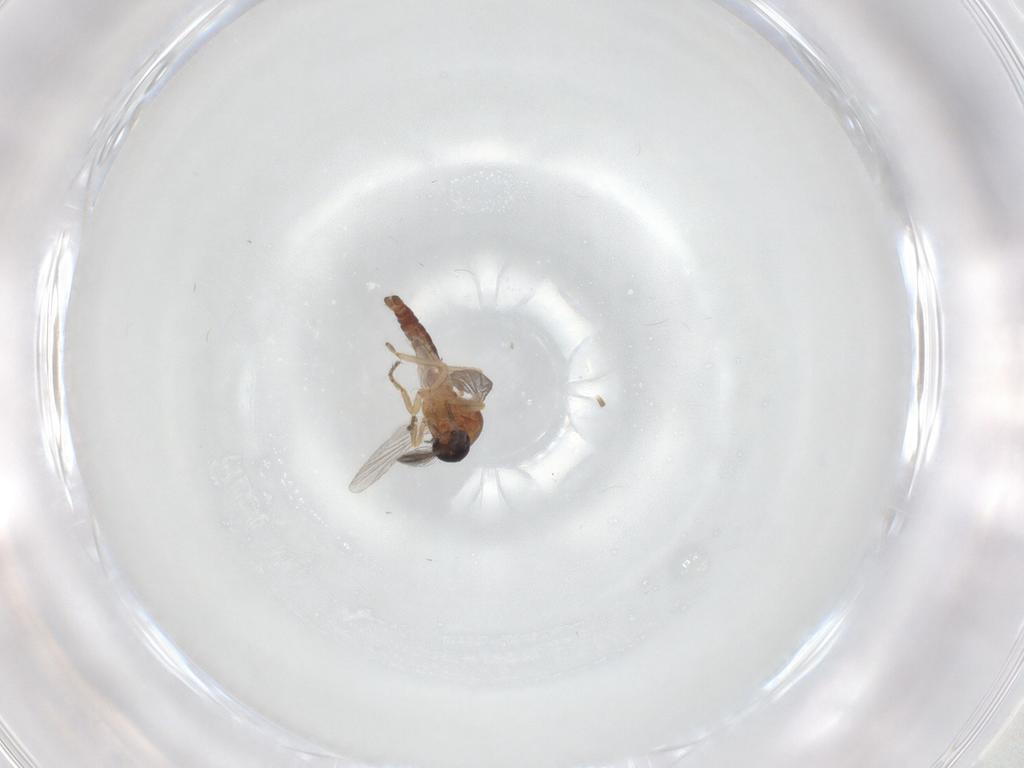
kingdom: Animalia
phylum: Arthropoda
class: Insecta
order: Diptera
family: Ceratopogonidae
